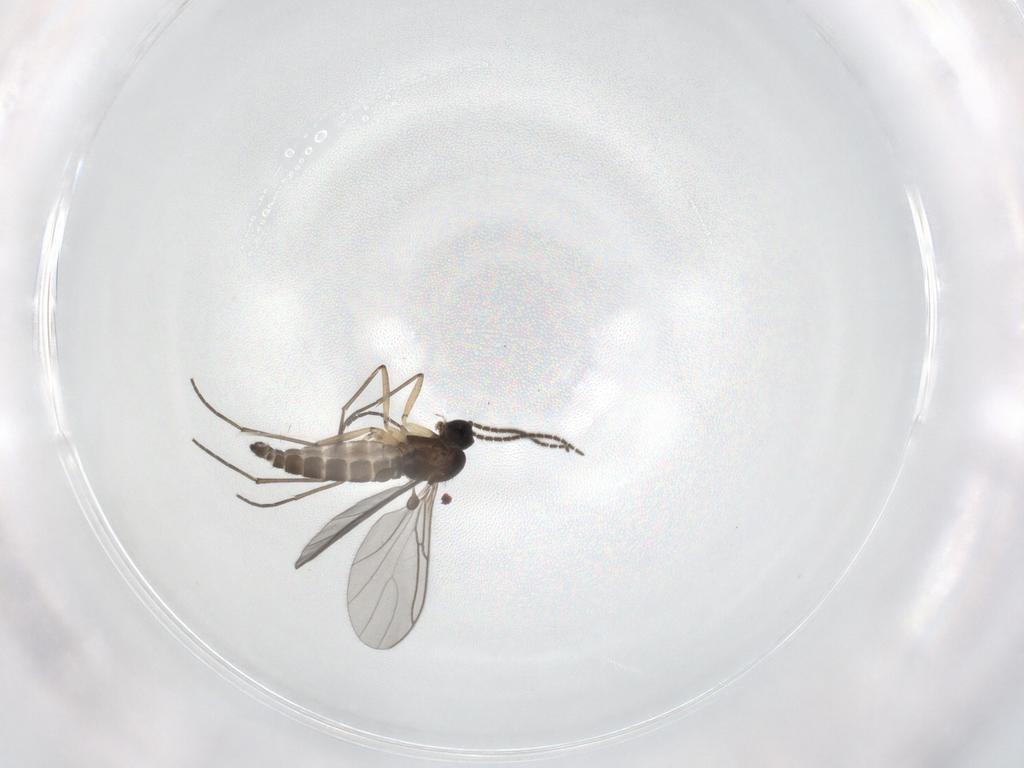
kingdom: Animalia
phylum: Arthropoda
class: Insecta
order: Diptera
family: Sciaridae
